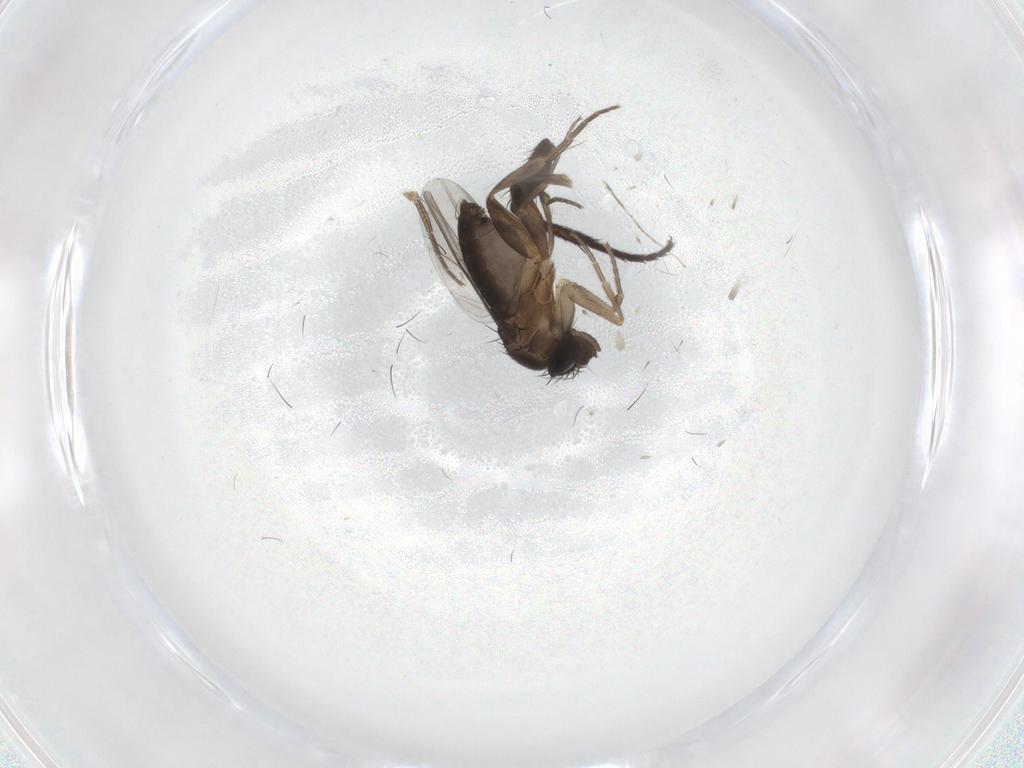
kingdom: Animalia
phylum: Arthropoda
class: Insecta
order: Diptera
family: Phoridae
